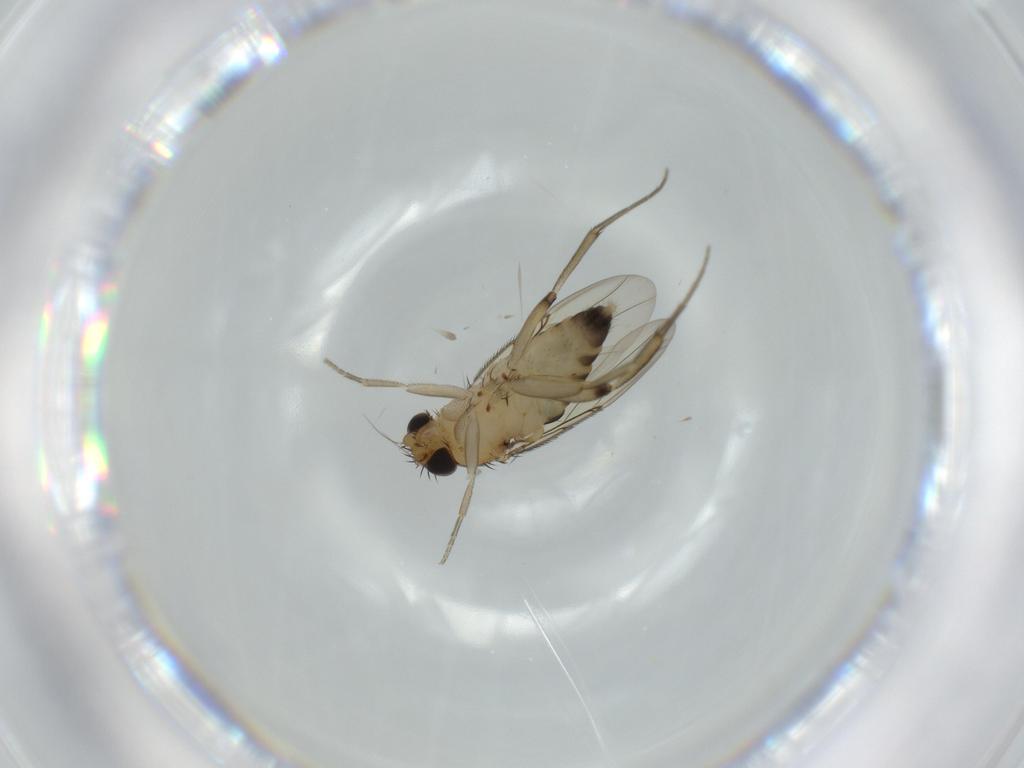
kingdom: Animalia
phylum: Arthropoda
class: Insecta
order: Diptera
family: Phoridae
